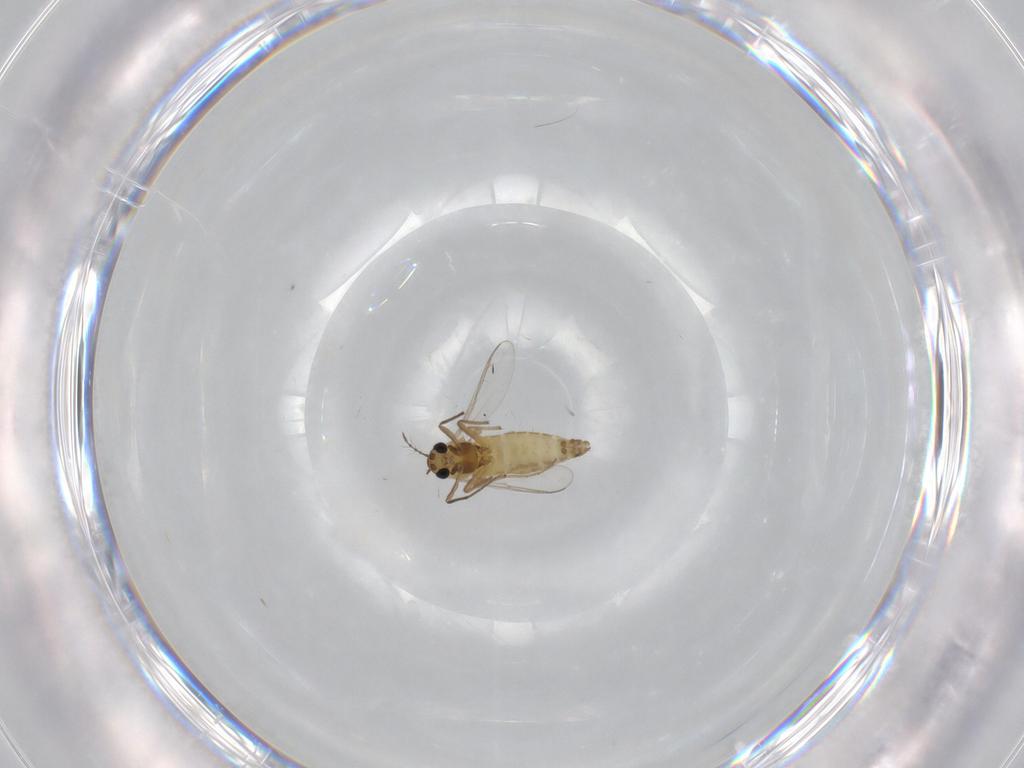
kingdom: Animalia
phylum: Arthropoda
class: Insecta
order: Diptera
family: Chironomidae
